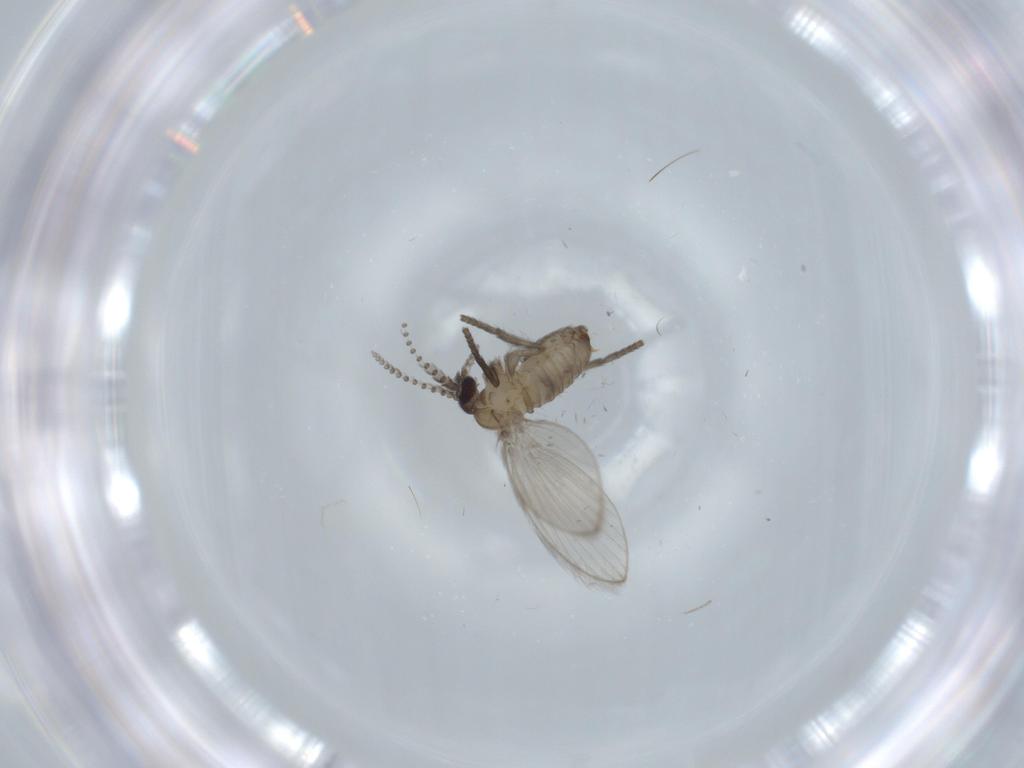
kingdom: Animalia
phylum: Arthropoda
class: Insecta
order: Diptera
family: Psychodidae
